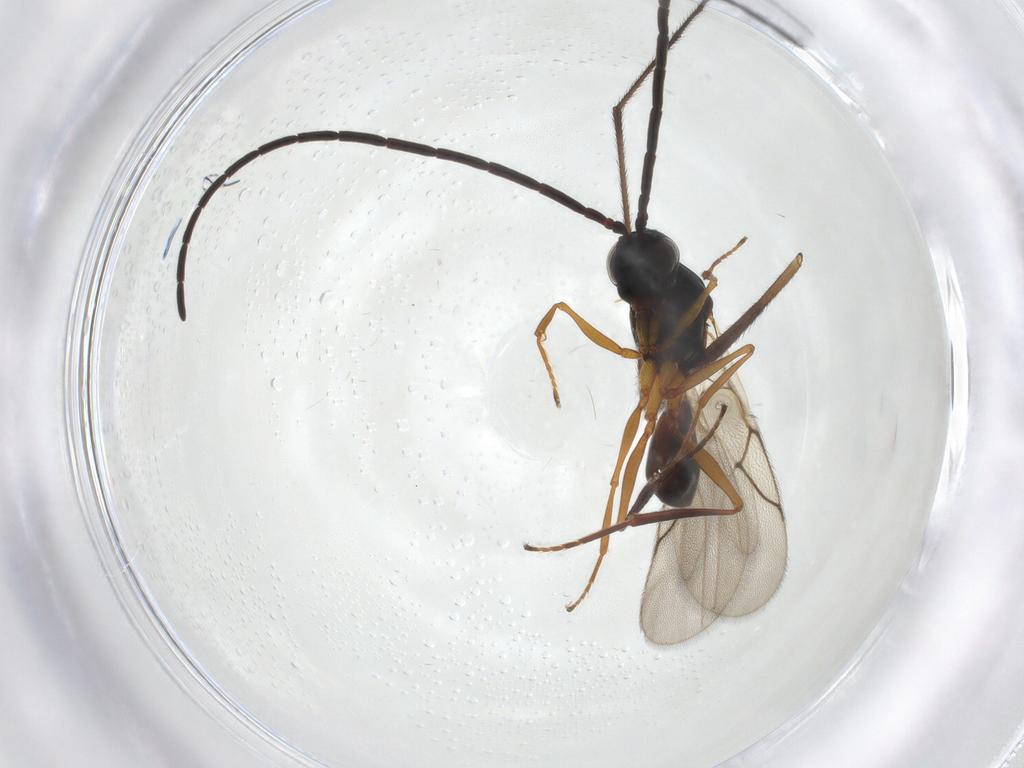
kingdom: Animalia
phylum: Arthropoda
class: Insecta
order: Hymenoptera
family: Figitidae
